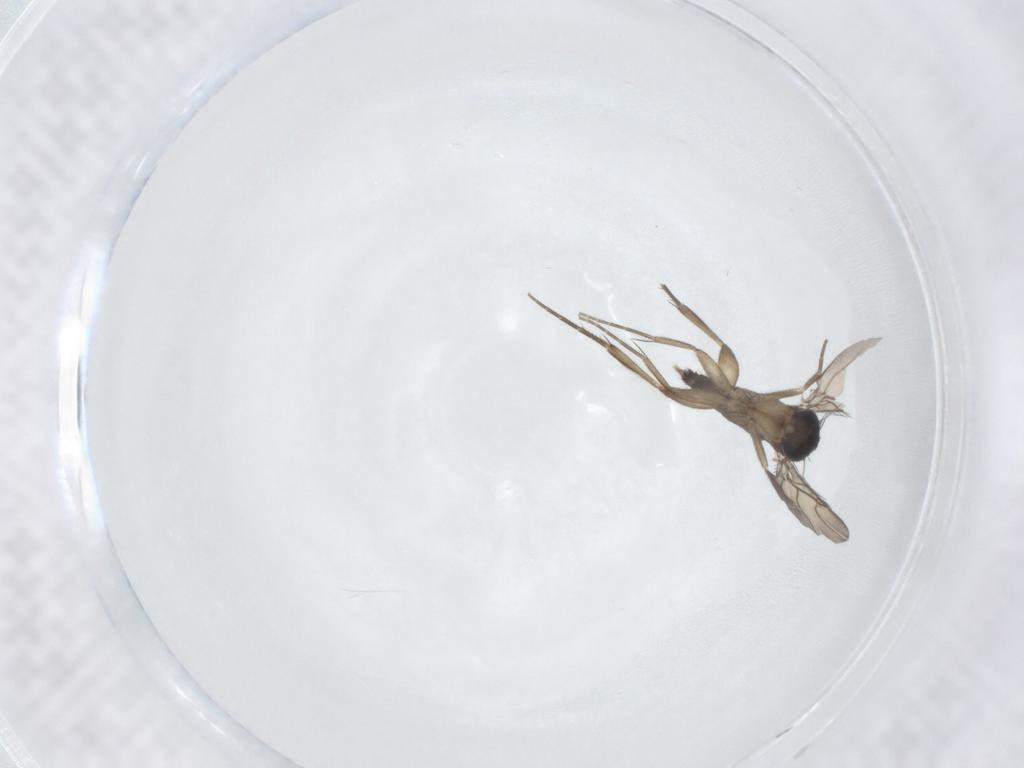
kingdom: Animalia
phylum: Arthropoda
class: Insecta
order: Diptera
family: Phoridae
